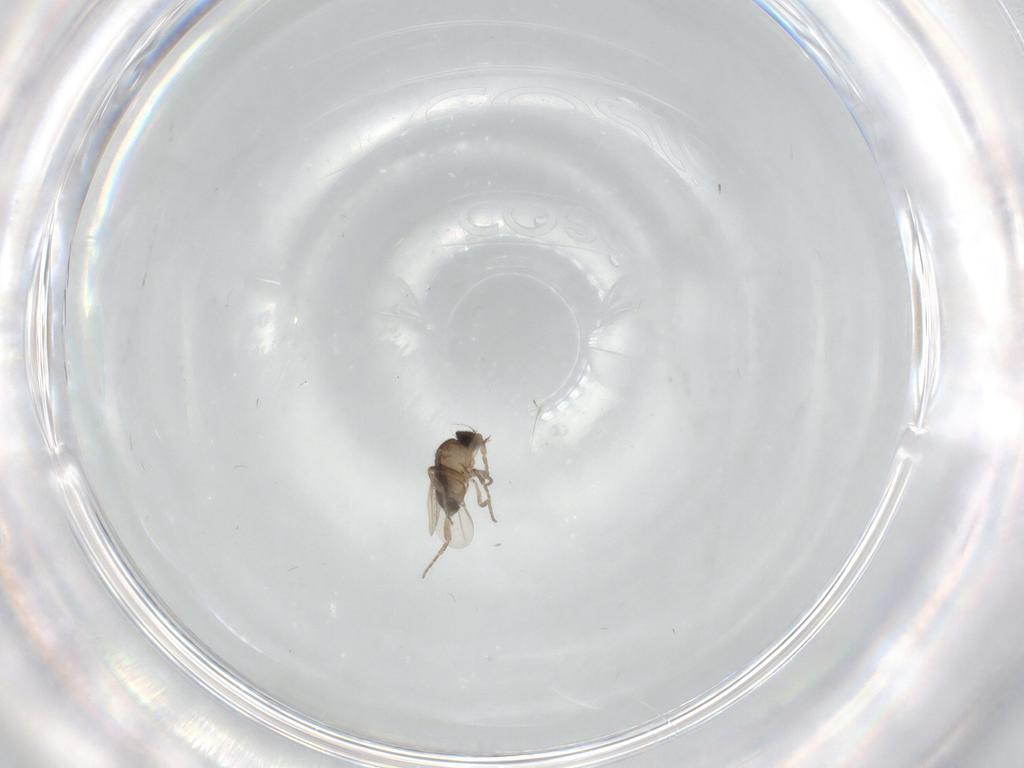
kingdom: Animalia
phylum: Arthropoda
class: Insecta
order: Diptera
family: Phoridae
